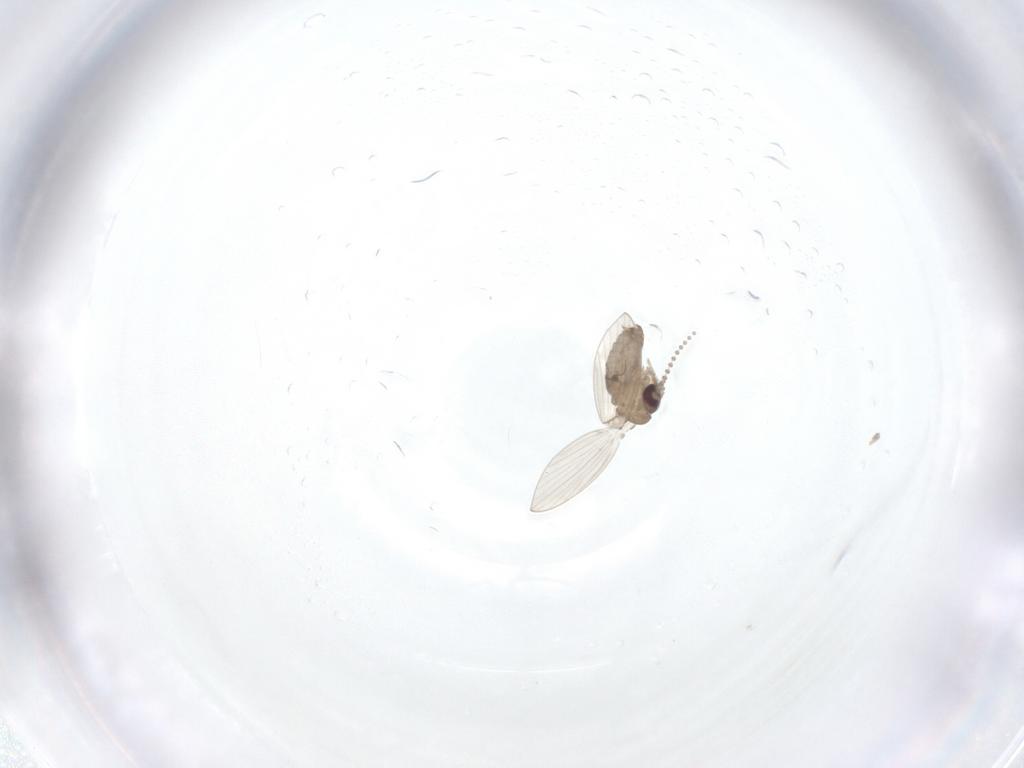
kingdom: Animalia
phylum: Arthropoda
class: Insecta
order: Diptera
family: Psychodidae
